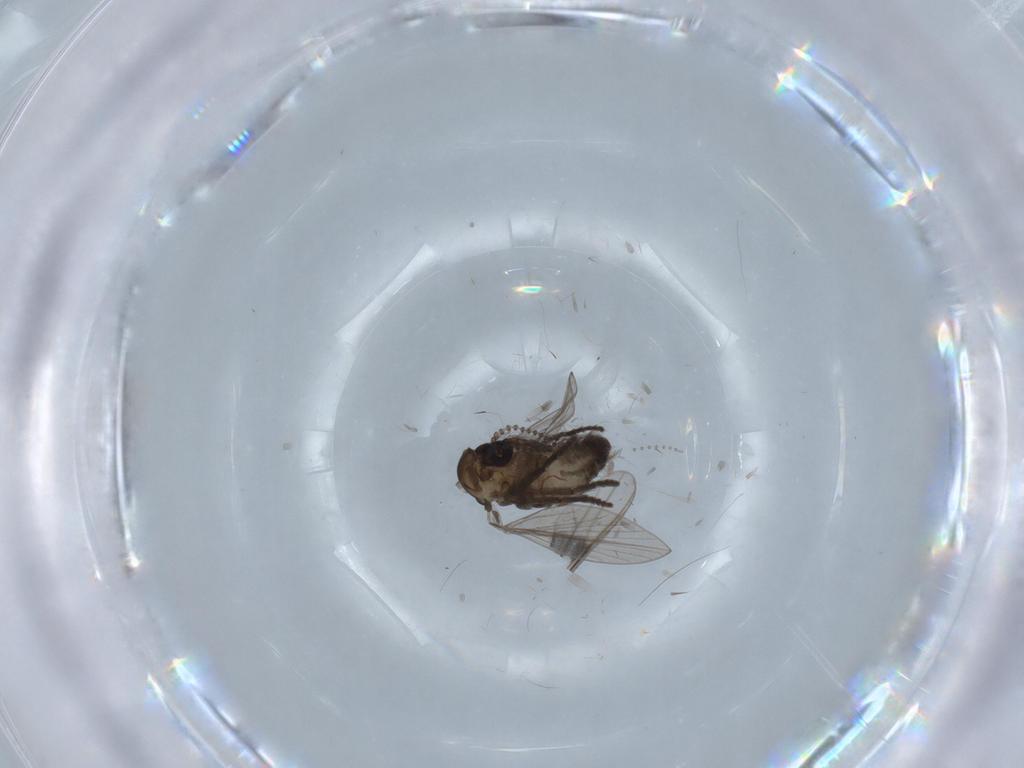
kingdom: Animalia
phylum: Arthropoda
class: Insecta
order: Diptera
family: Psychodidae
